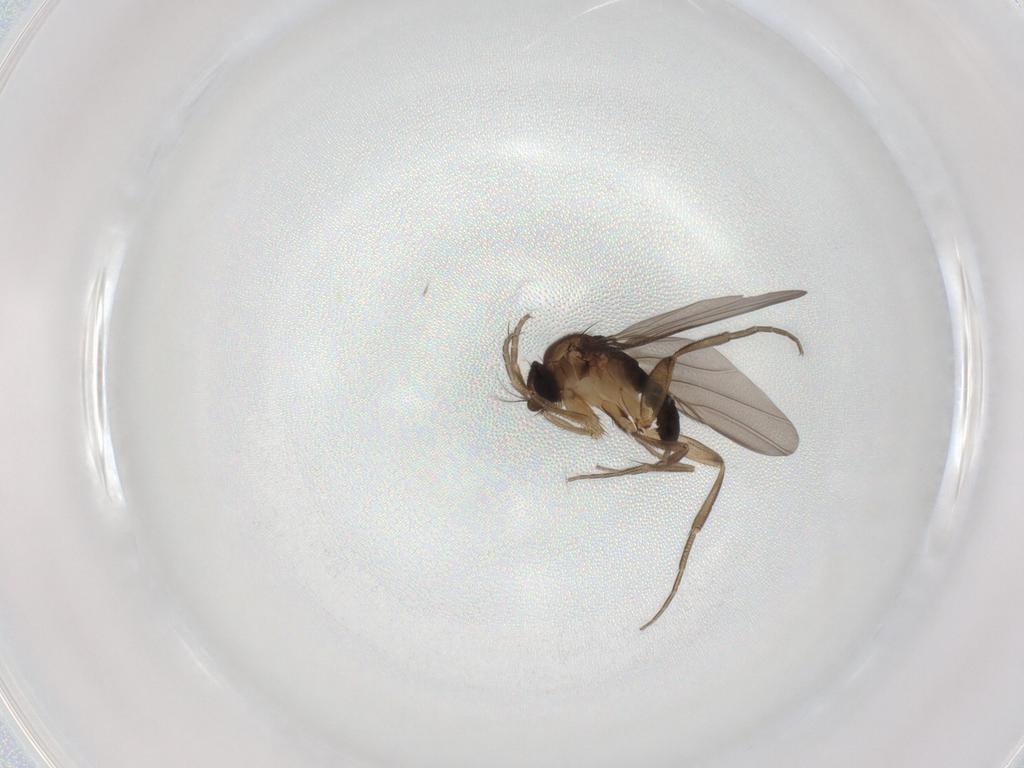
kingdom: Animalia
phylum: Arthropoda
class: Insecta
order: Diptera
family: Phoridae
